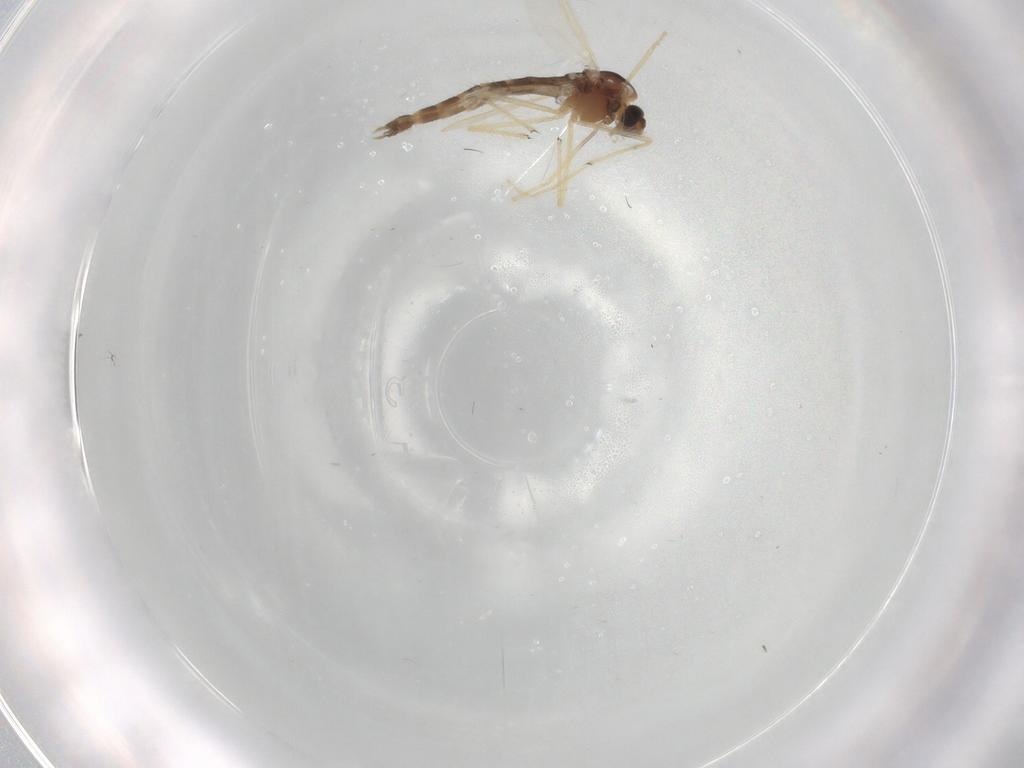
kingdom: Animalia
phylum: Arthropoda
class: Insecta
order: Diptera
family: Chironomidae
